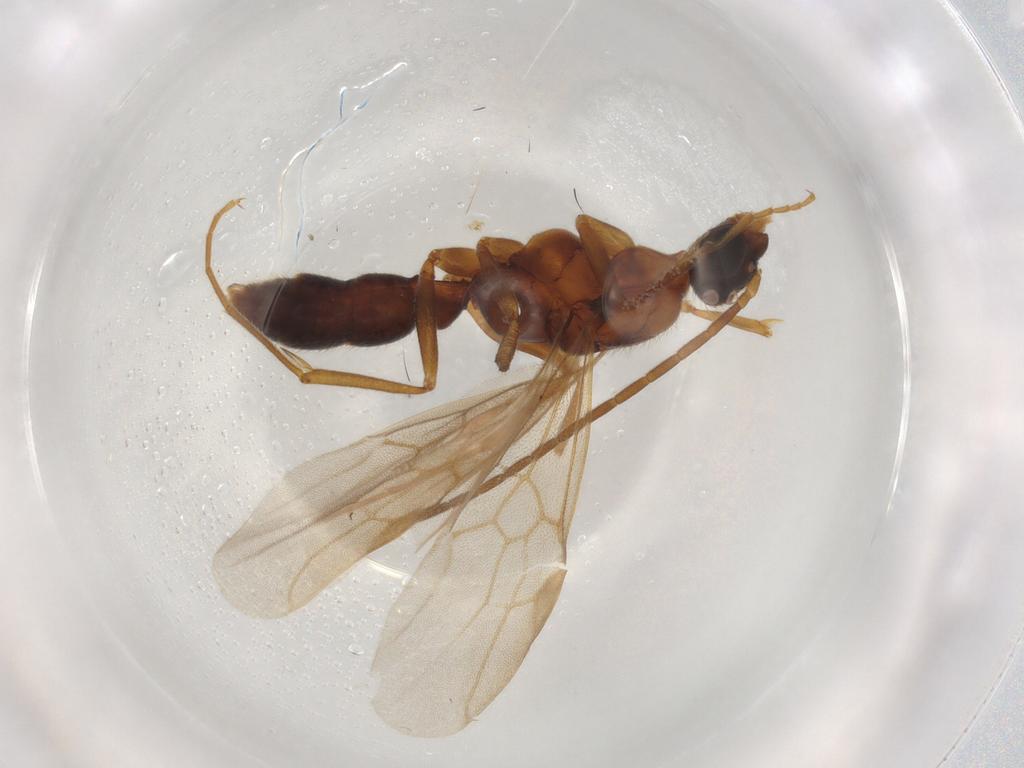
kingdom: Animalia
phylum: Arthropoda
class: Insecta
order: Hymenoptera
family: Formicidae
